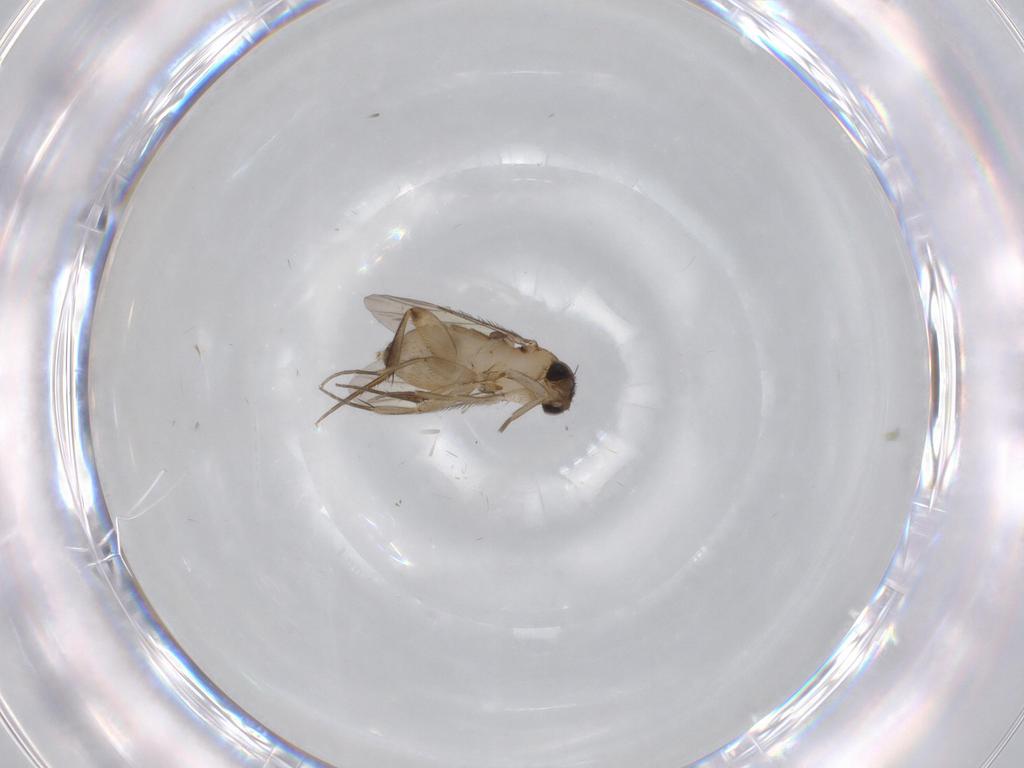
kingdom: Animalia
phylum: Arthropoda
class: Insecta
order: Diptera
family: Phoridae
